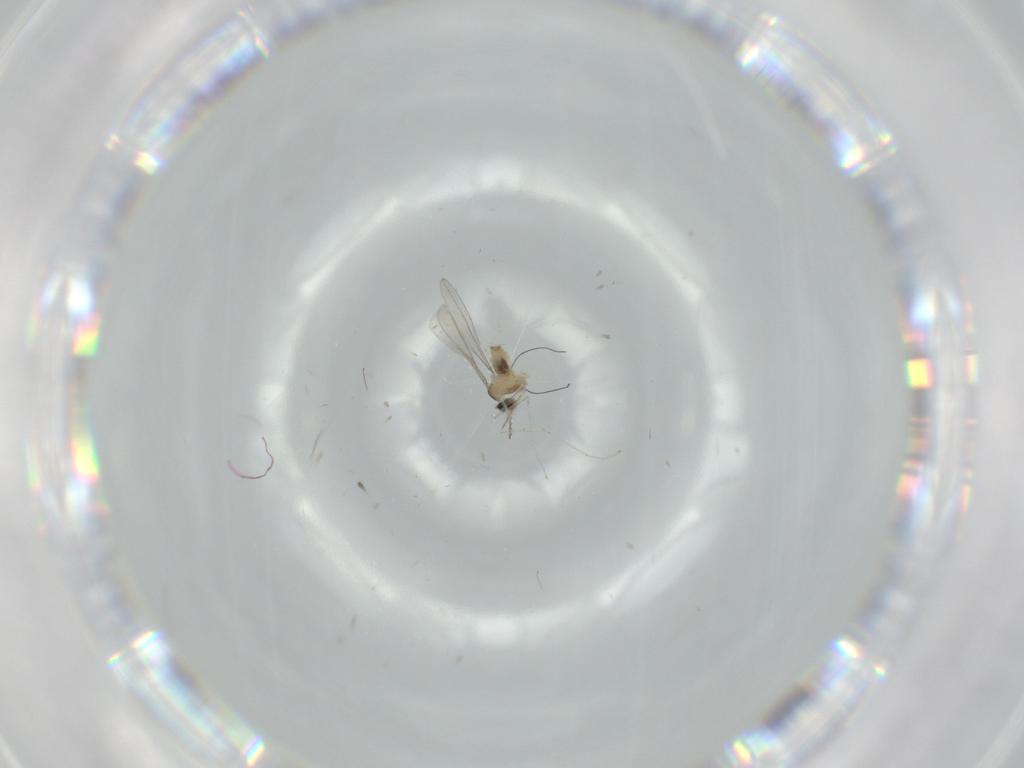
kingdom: Animalia
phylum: Arthropoda
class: Insecta
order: Diptera
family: Cecidomyiidae
